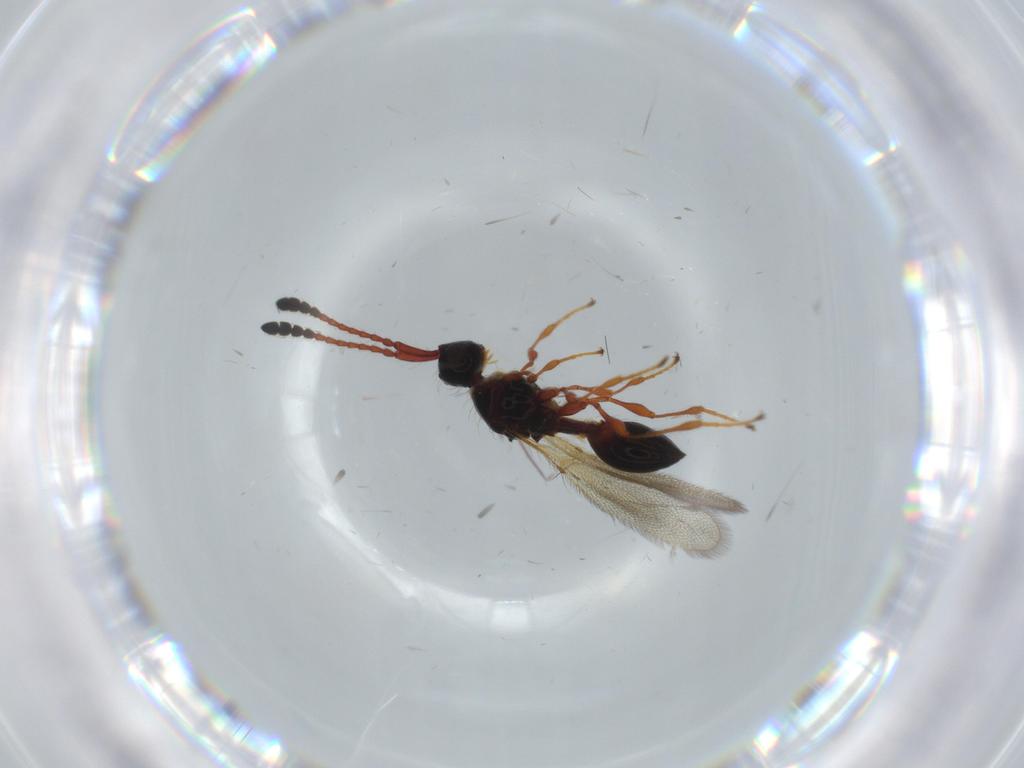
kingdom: Animalia
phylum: Arthropoda
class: Insecta
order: Hymenoptera
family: Diapriidae
